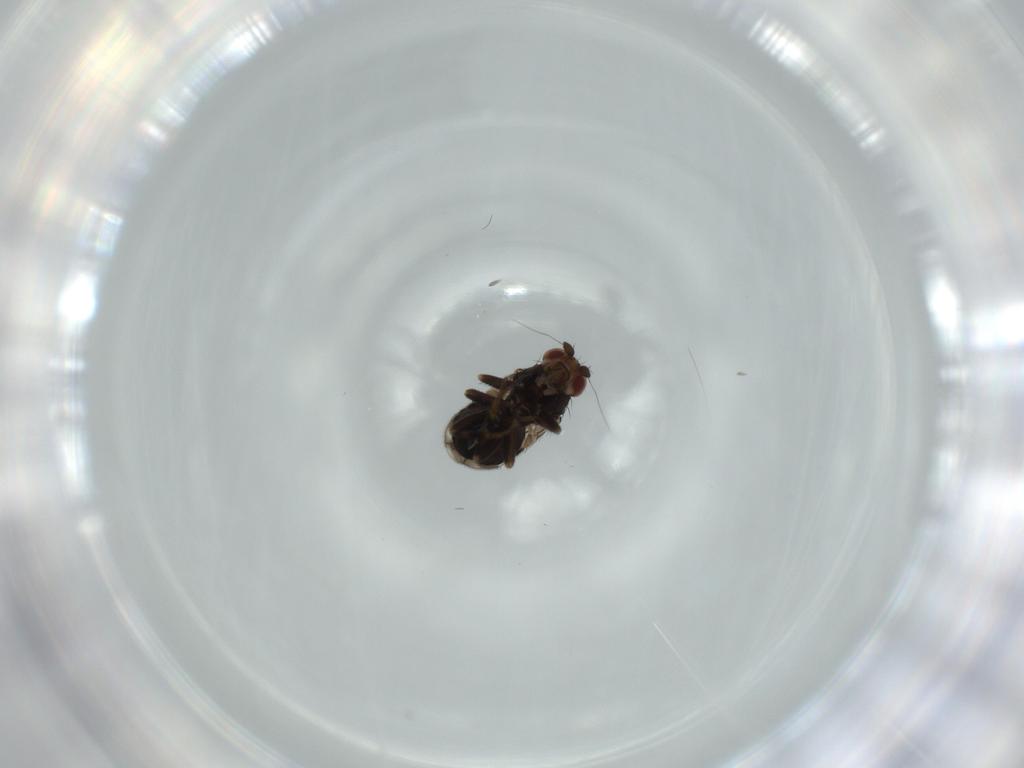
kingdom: Animalia
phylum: Arthropoda
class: Insecta
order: Diptera
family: Sphaeroceridae
